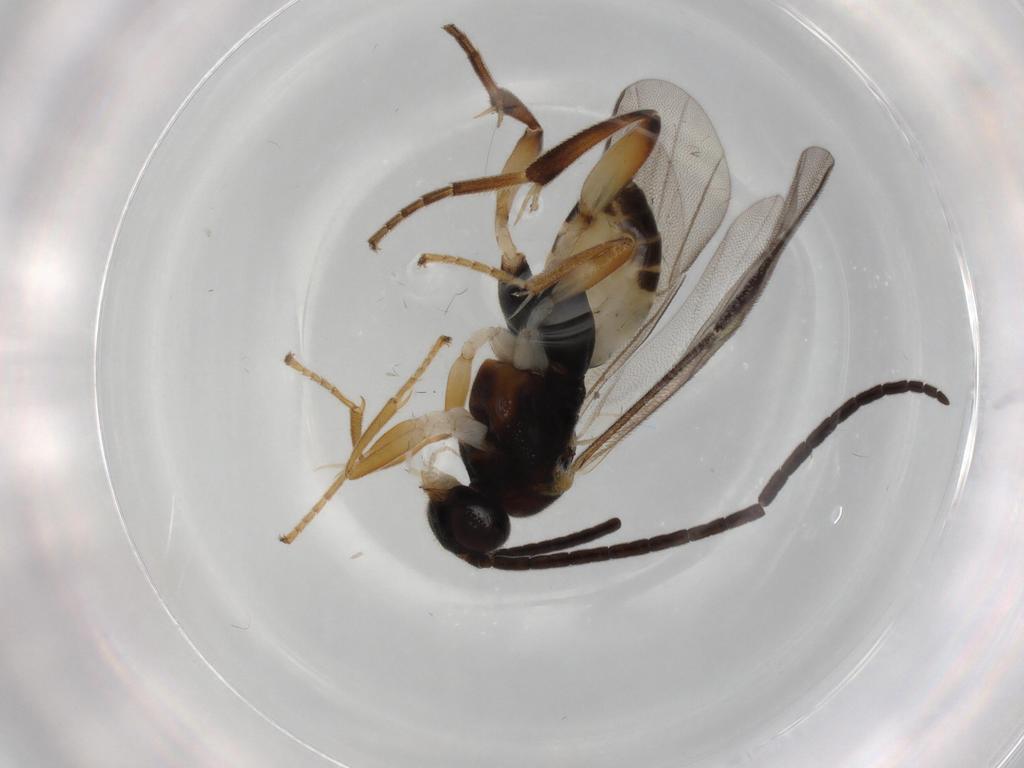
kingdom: Animalia
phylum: Arthropoda
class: Insecta
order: Hymenoptera
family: Braconidae
